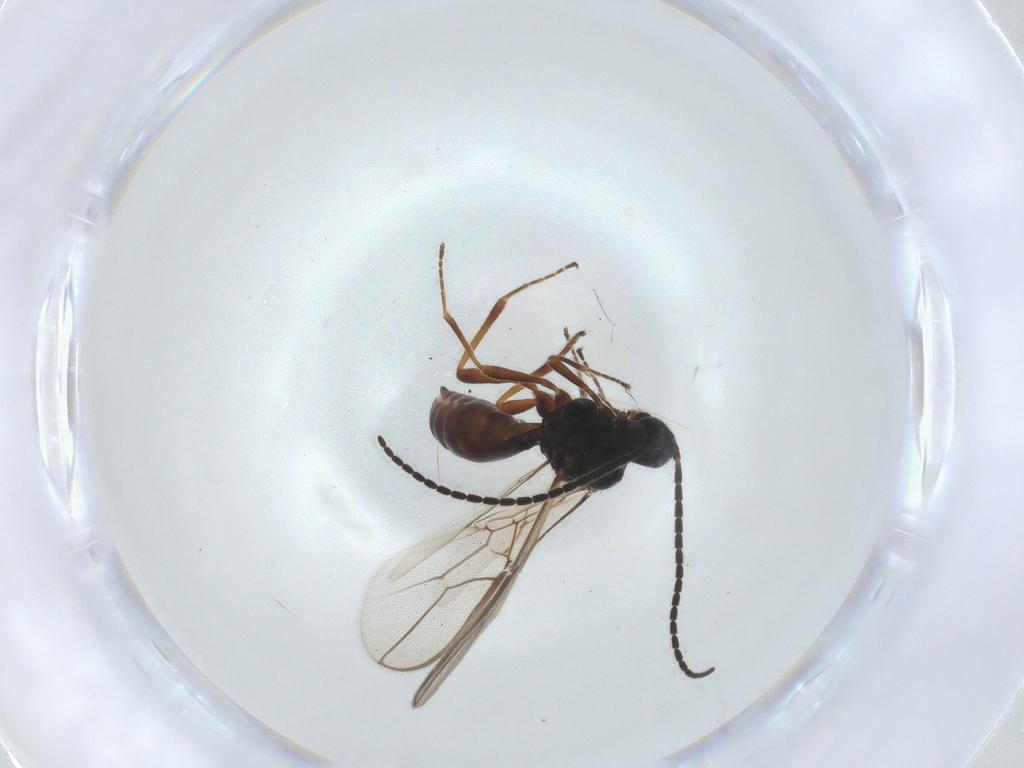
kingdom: Animalia
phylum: Arthropoda
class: Insecta
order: Hymenoptera
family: Braconidae
